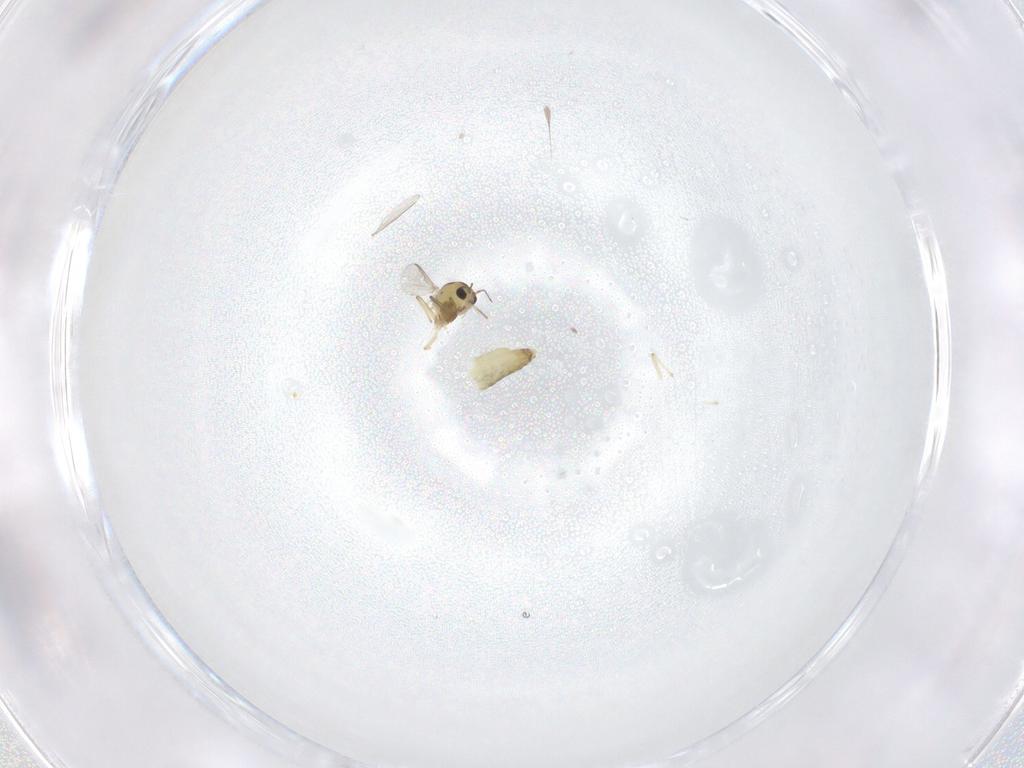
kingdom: Animalia
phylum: Arthropoda
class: Insecta
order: Diptera
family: Chironomidae
